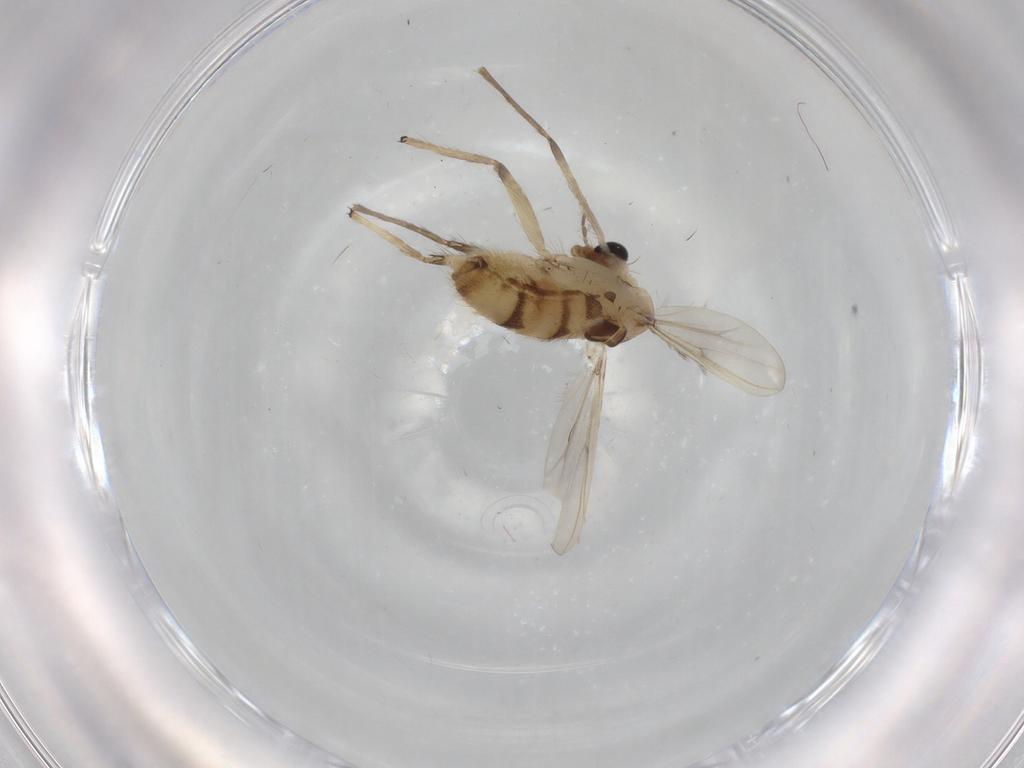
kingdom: Animalia
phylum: Arthropoda
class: Insecta
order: Diptera
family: Chironomidae
